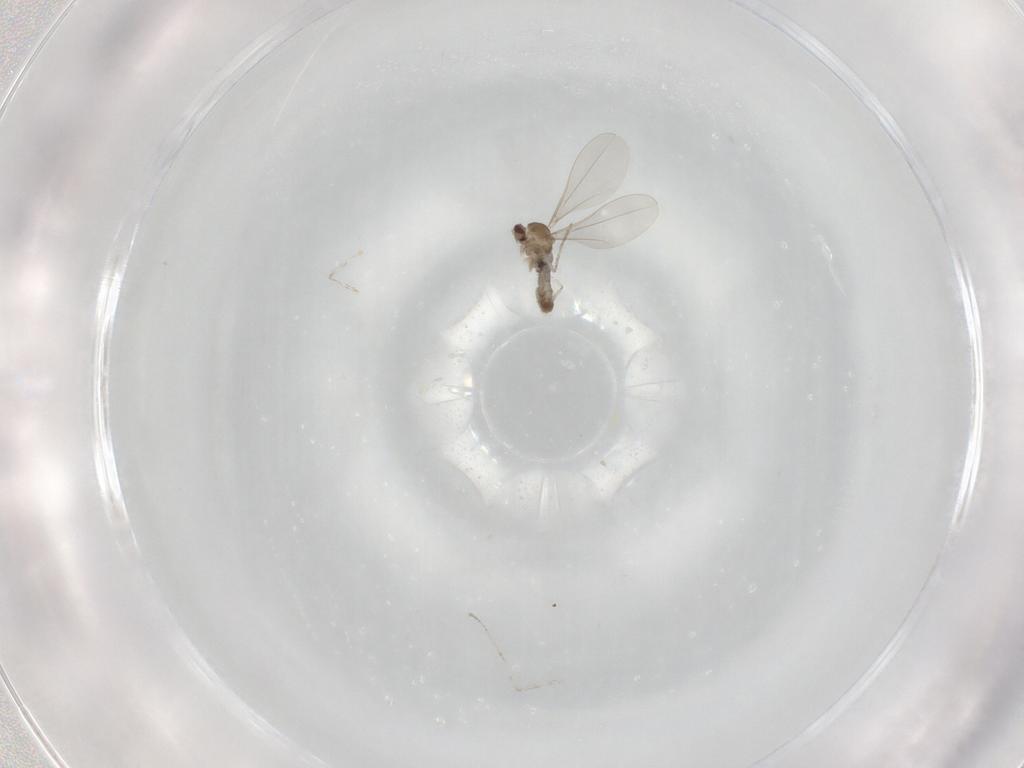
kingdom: Animalia
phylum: Arthropoda
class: Insecta
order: Diptera
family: Cecidomyiidae
